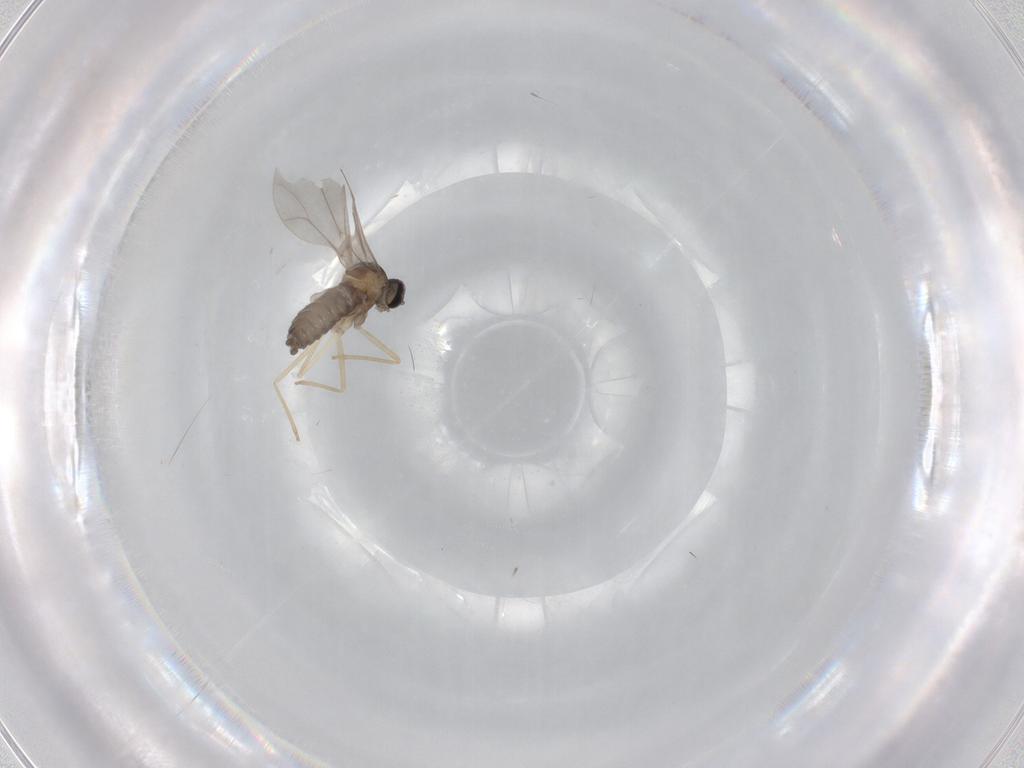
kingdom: Animalia
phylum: Arthropoda
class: Insecta
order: Diptera
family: Cecidomyiidae
